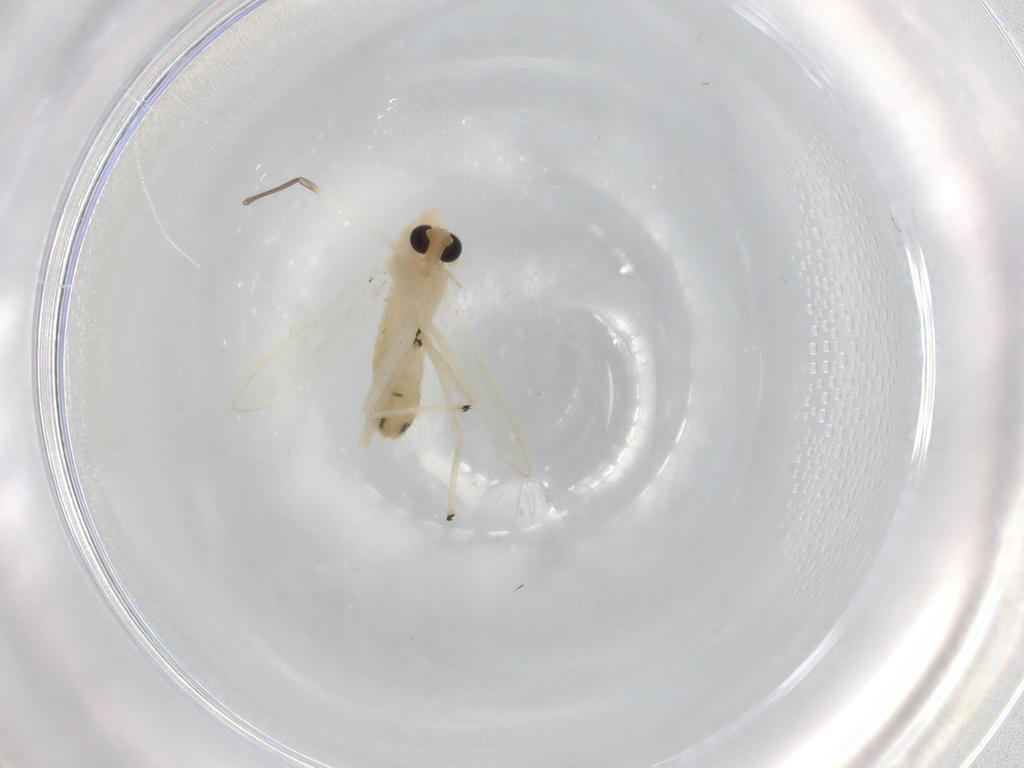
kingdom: Animalia
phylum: Arthropoda
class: Insecta
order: Diptera
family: Chironomidae
